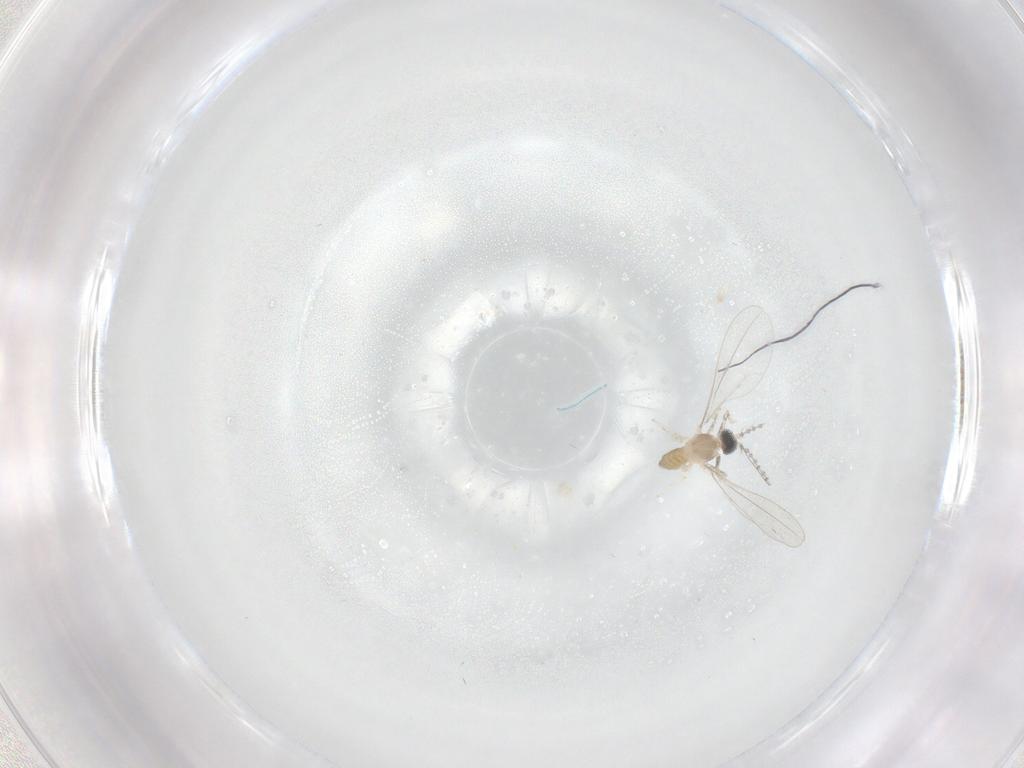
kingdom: Animalia
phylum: Arthropoda
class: Insecta
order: Diptera
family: Cecidomyiidae
